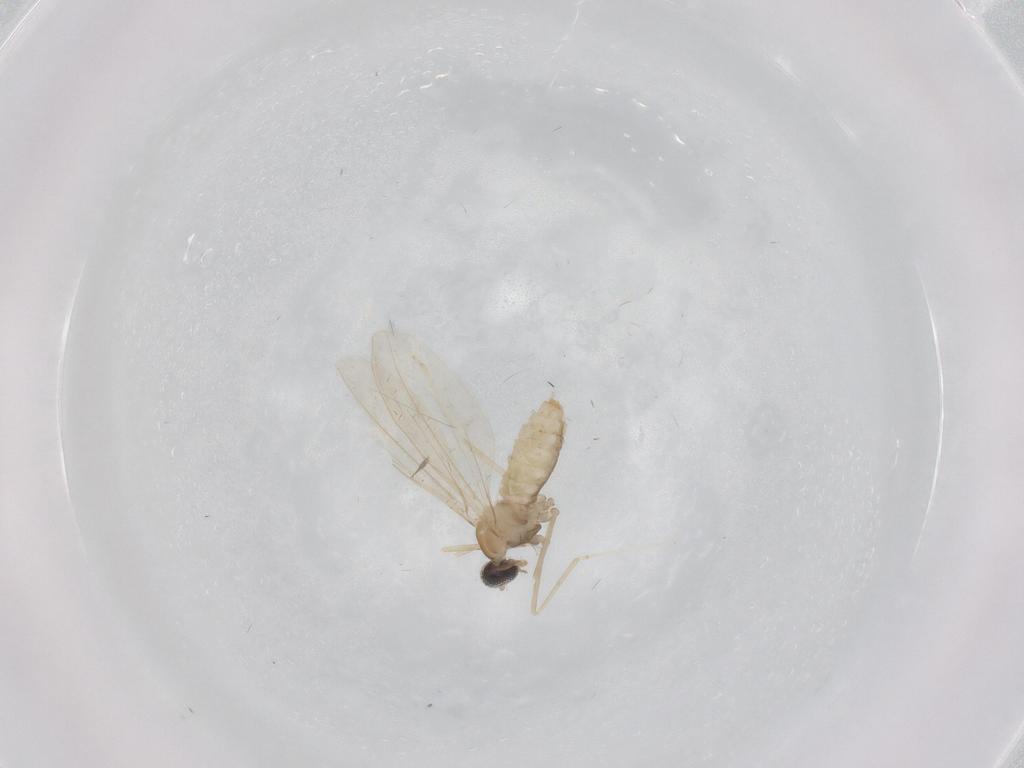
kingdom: Animalia
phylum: Arthropoda
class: Insecta
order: Diptera
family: Cecidomyiidae
